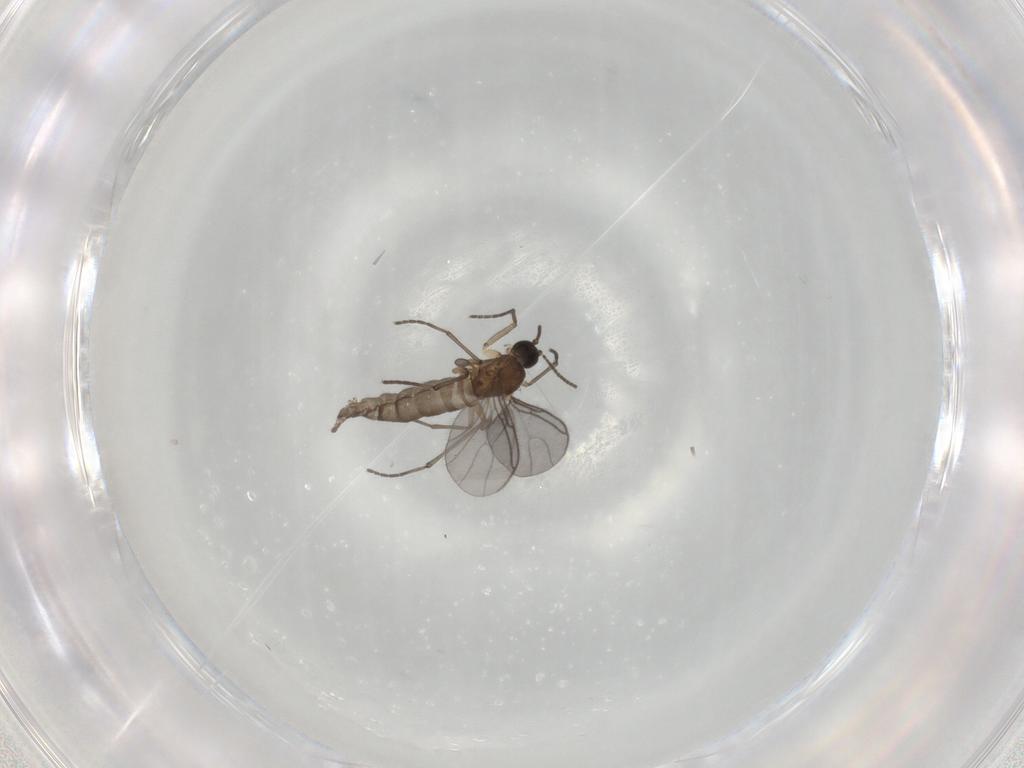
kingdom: Animalia
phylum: Arthropoda
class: Insecta
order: Diptera
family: Sciaridae
